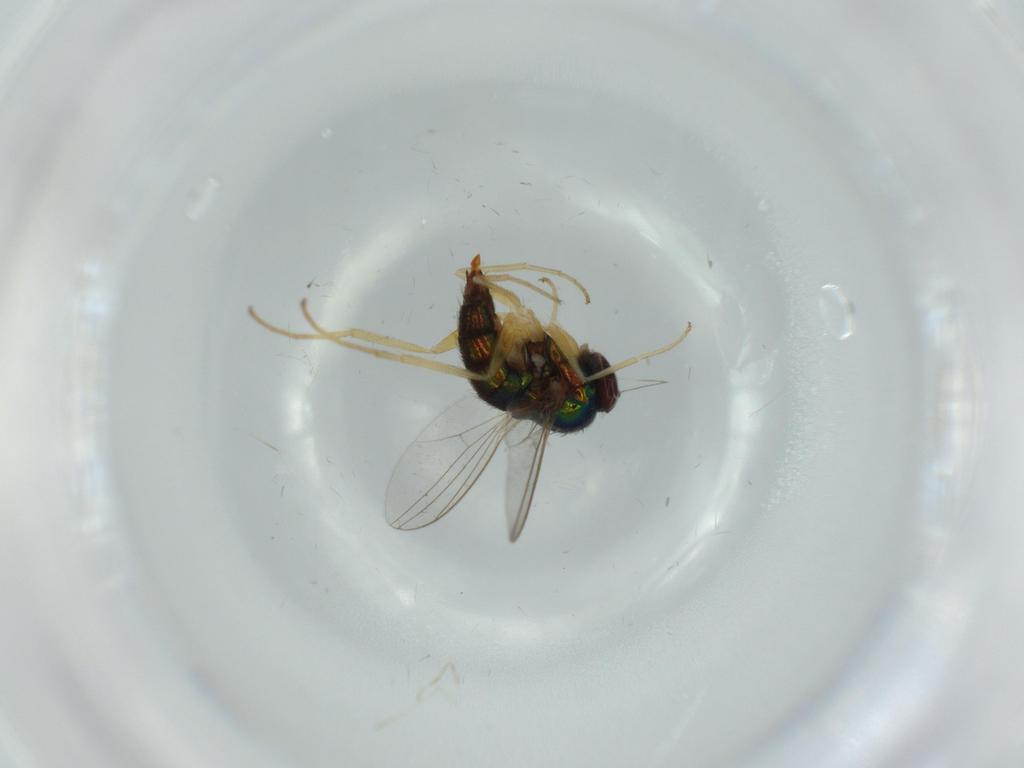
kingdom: Animalia
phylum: Arthropoda
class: Insecta
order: Diptera
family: Dolichopodidae
